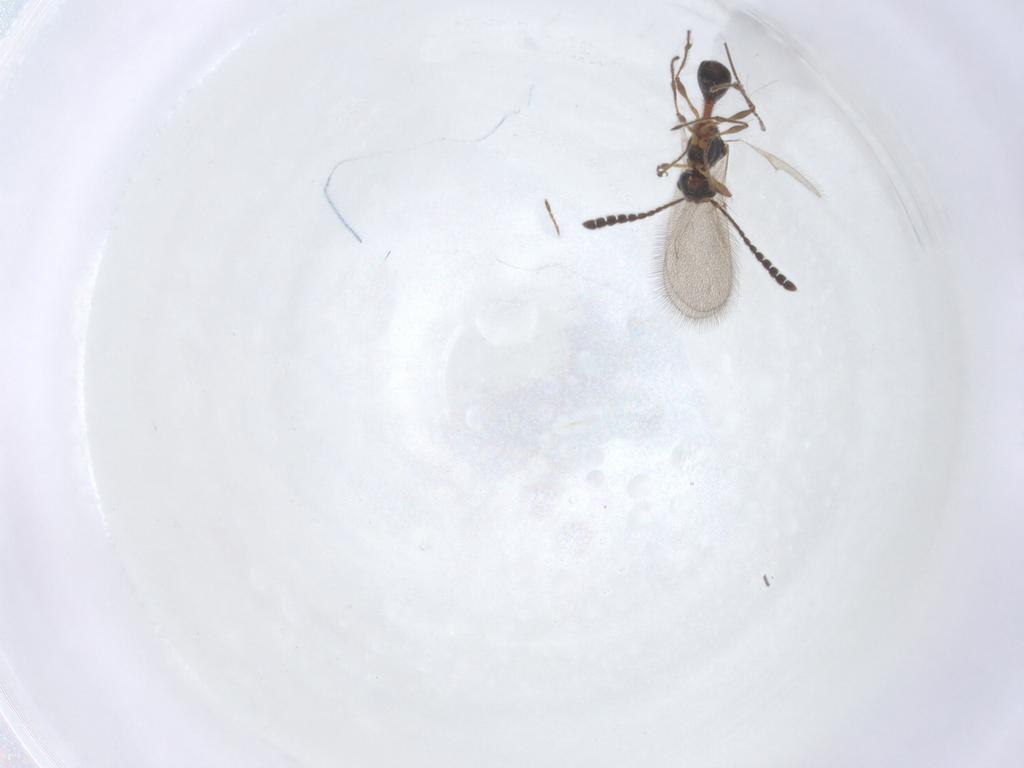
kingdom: Animalia
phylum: Arthropoda
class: Insecta
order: Hymenoptera
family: Diapriidae
